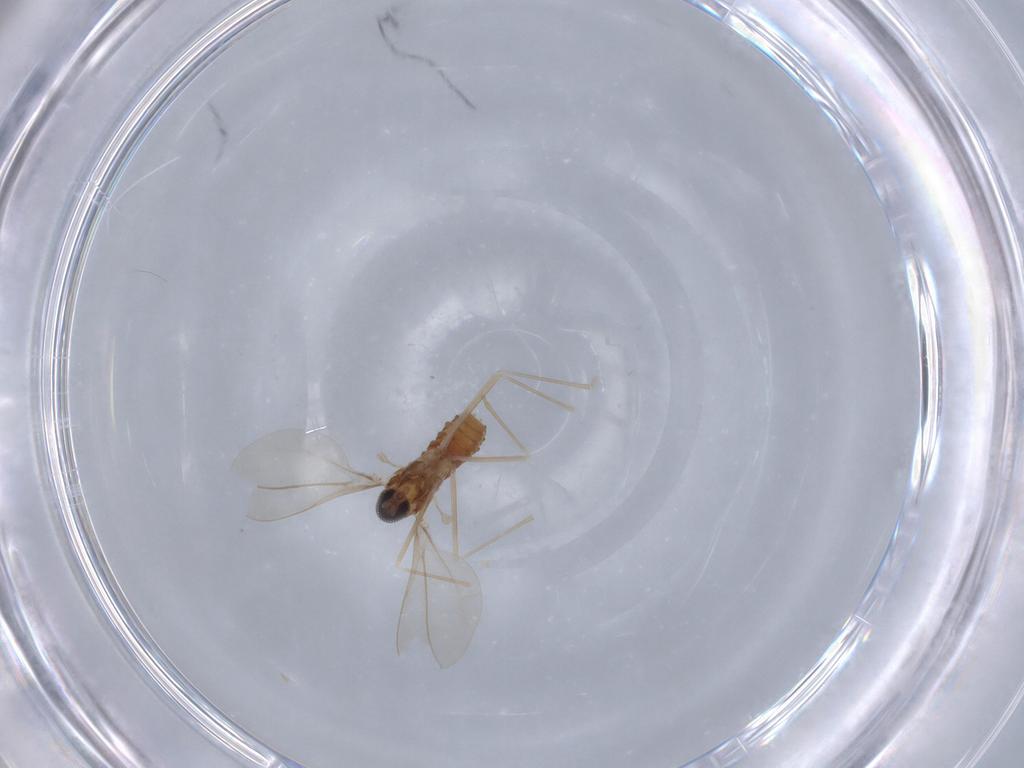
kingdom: Animalia
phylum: Arthropoda
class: Insecta
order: Diptera
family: Cecidomyiidae
